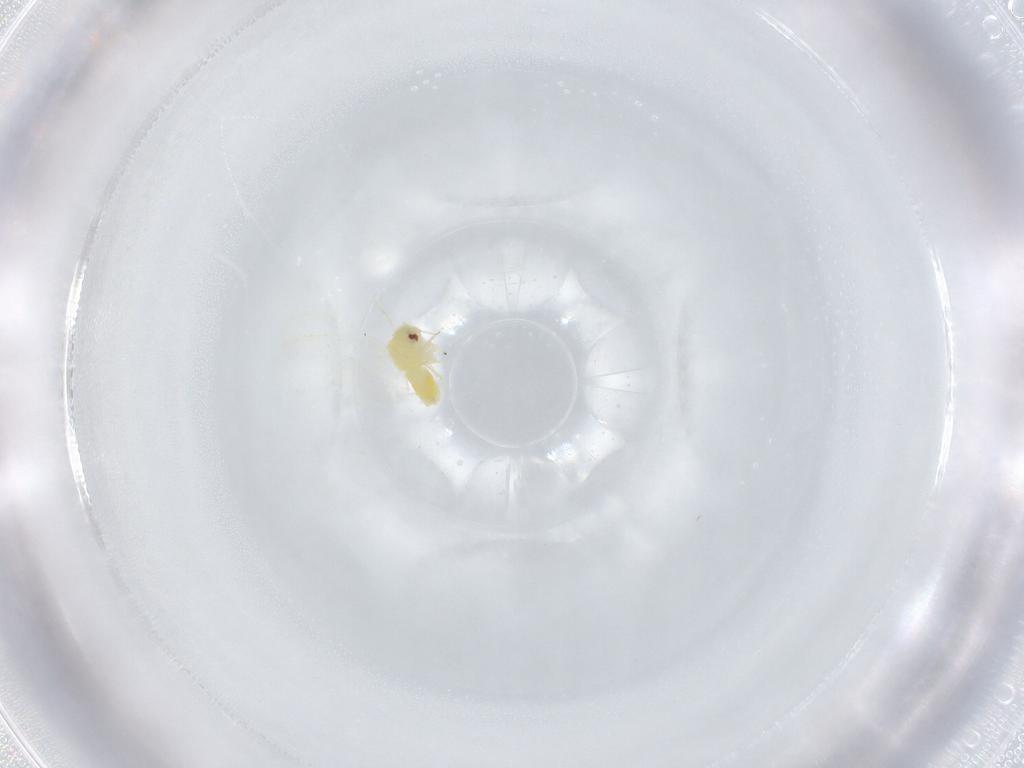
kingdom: Animalia
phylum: Arthropoda
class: Insecta
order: Hemiptera
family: Aleyrodidae
